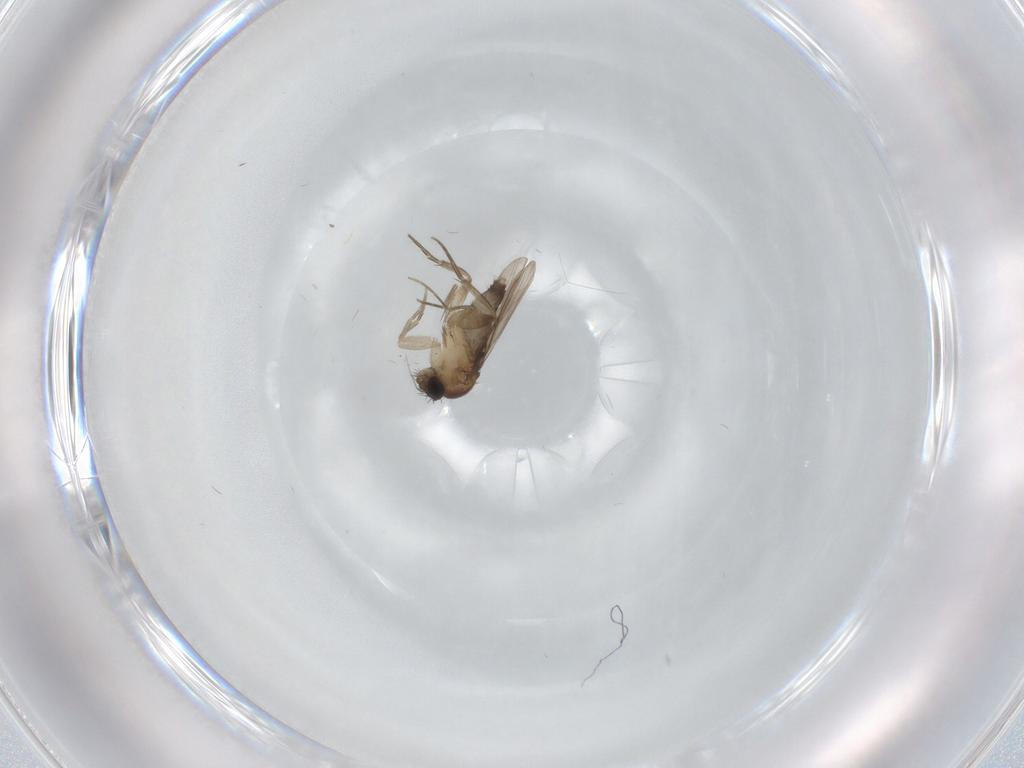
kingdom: Animalia
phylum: Arthropoda
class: Insecta
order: Diptera
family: Phoridae
